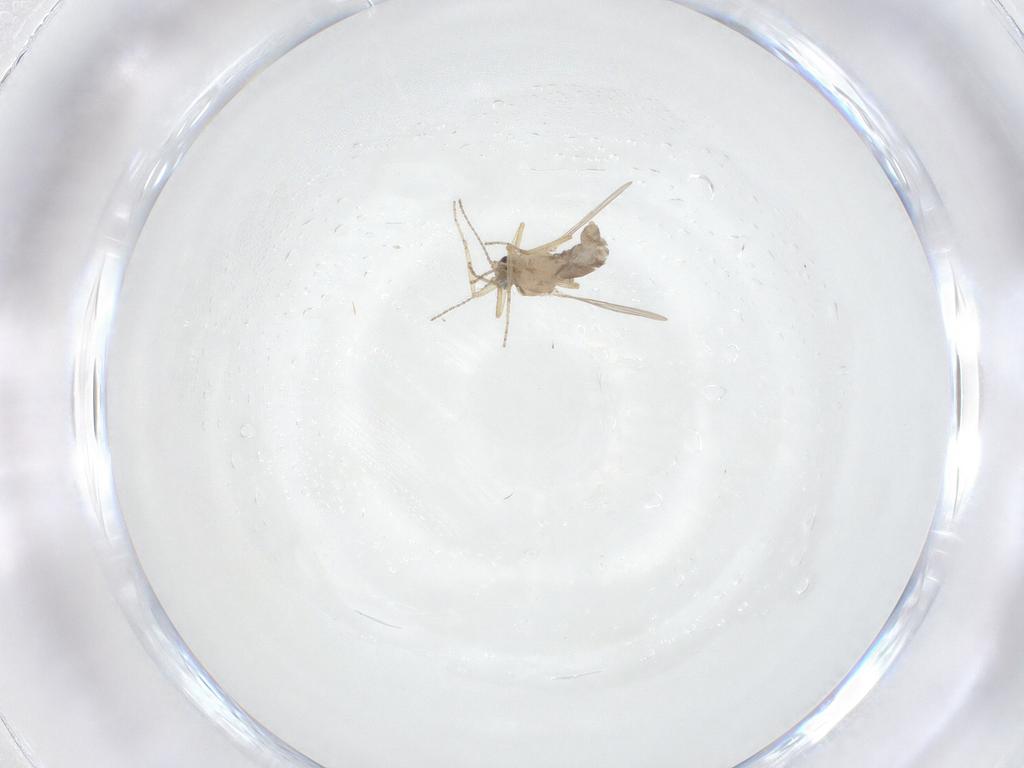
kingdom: Animalia
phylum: Arthropoda
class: Insecta
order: Diptera
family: Ceratopogonidae
